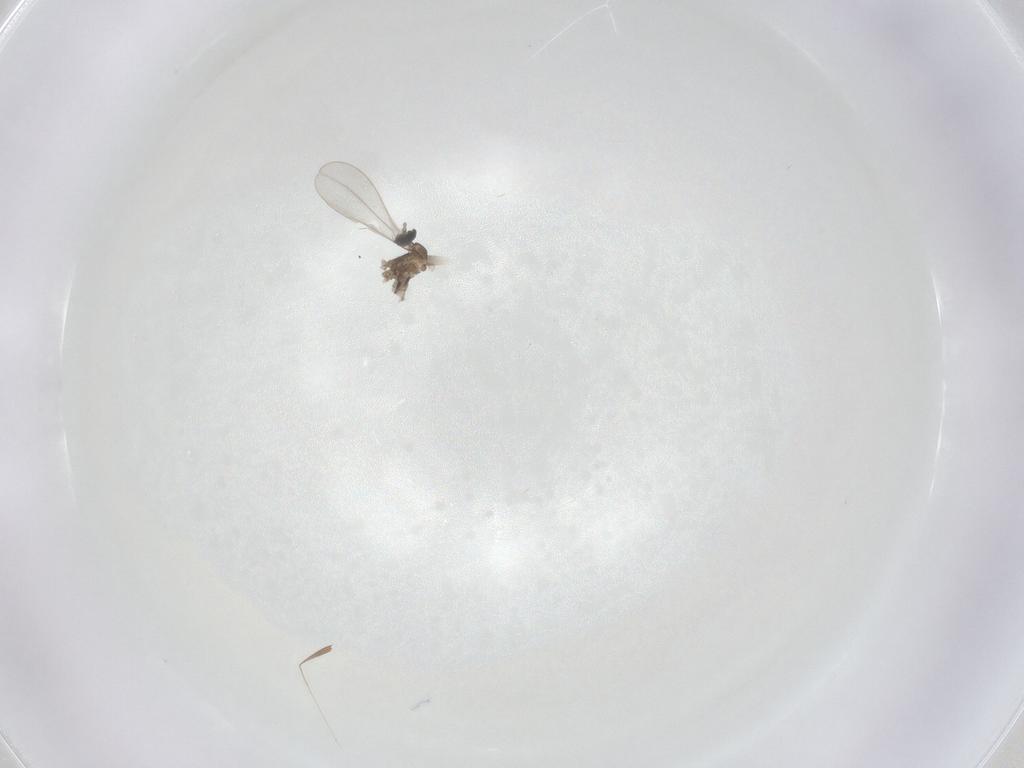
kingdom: Animalia
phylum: Arthropoda
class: Insecta
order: Diptera
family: Cecidomyiidae
